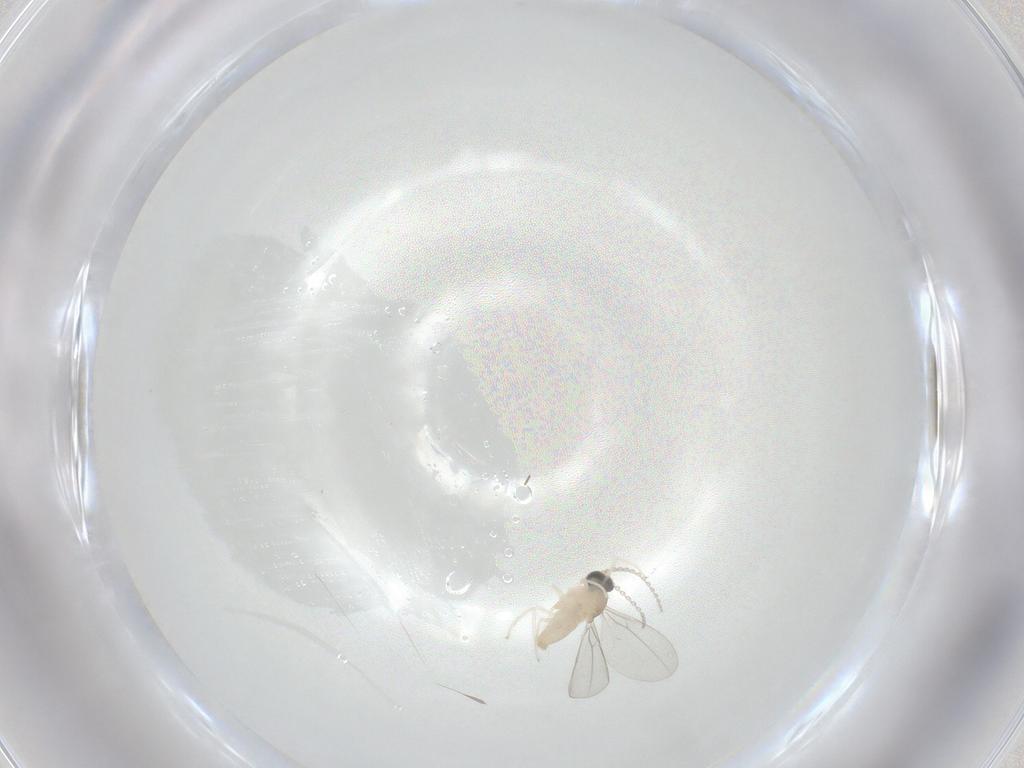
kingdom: Animalia
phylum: Arthropoda
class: Insecta
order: Diptera
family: Cecidomyiidae
